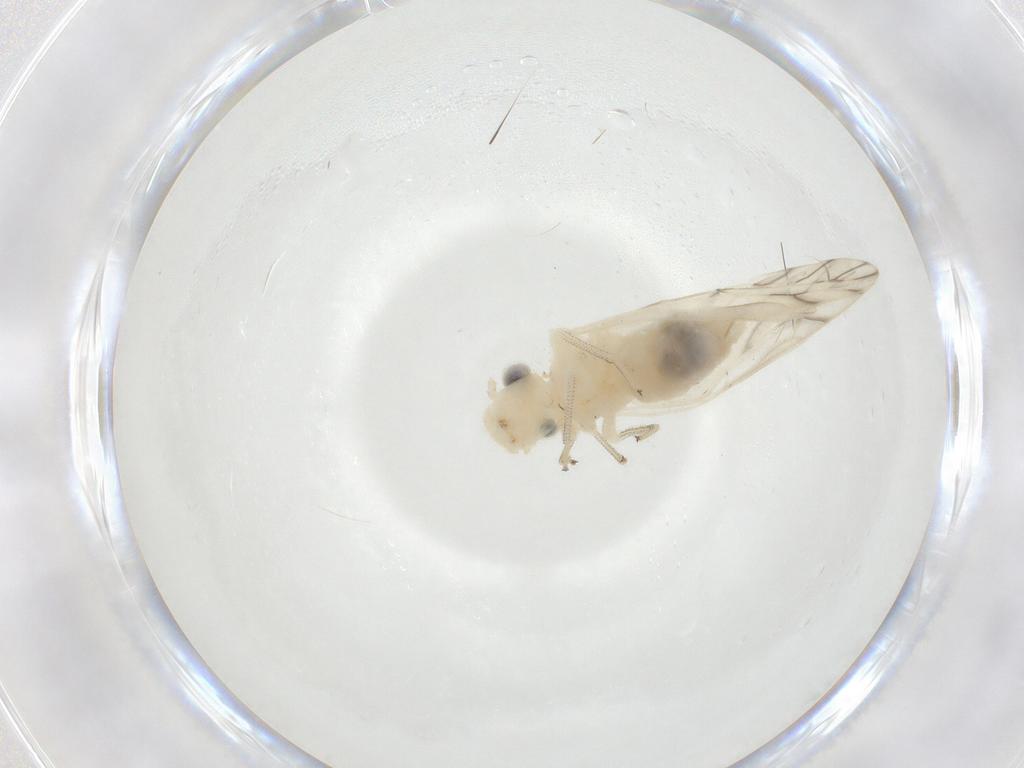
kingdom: Animalia
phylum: Arthropoda
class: Insecta
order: Psocodea
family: Caeciliusidae
